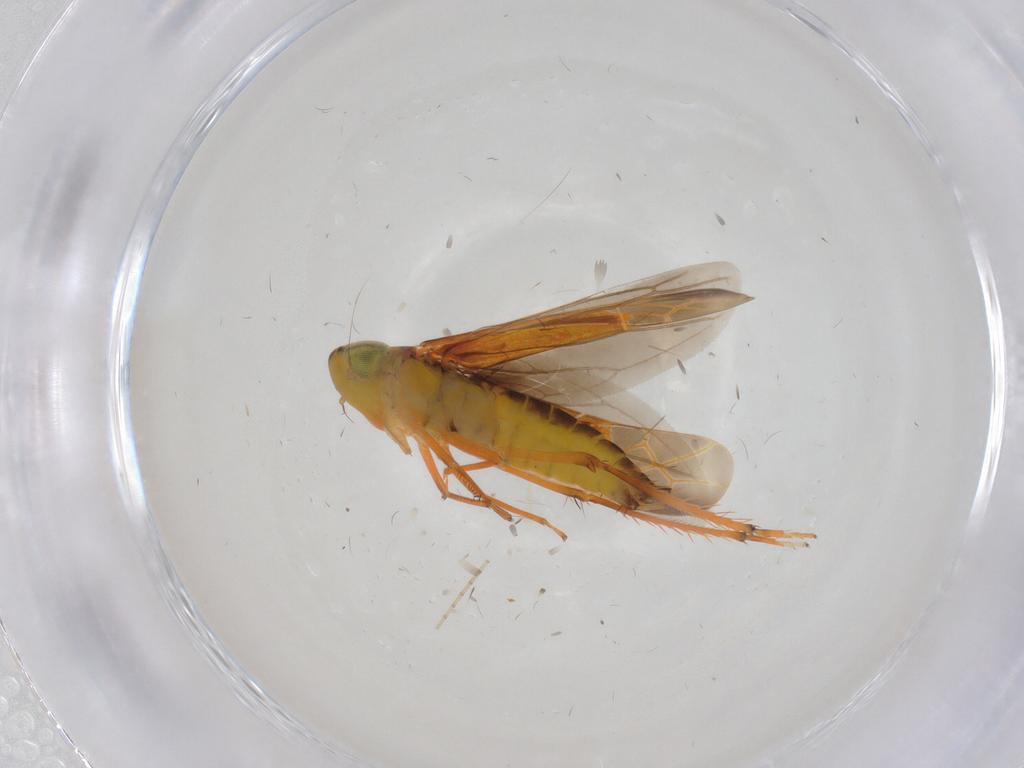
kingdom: Animalia
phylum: Arthropoda
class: Insecta
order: Hemiptera
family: Cicadellidae
